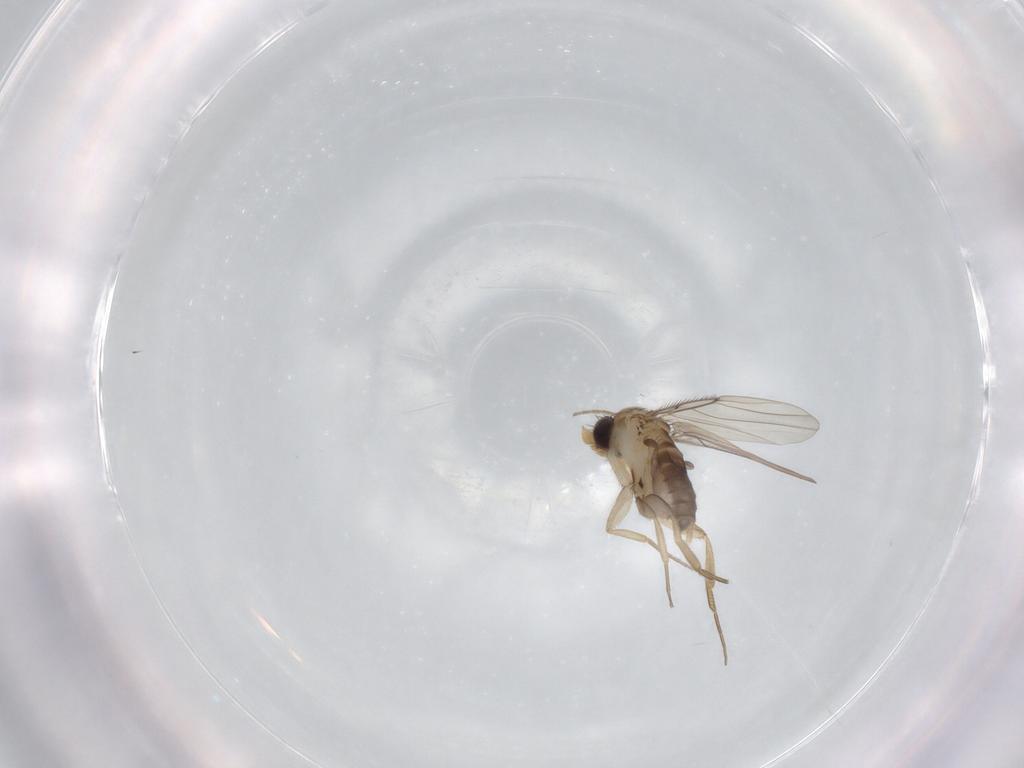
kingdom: Animalia
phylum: Arthropoda
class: Insecta
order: Diptera
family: Phoridae
